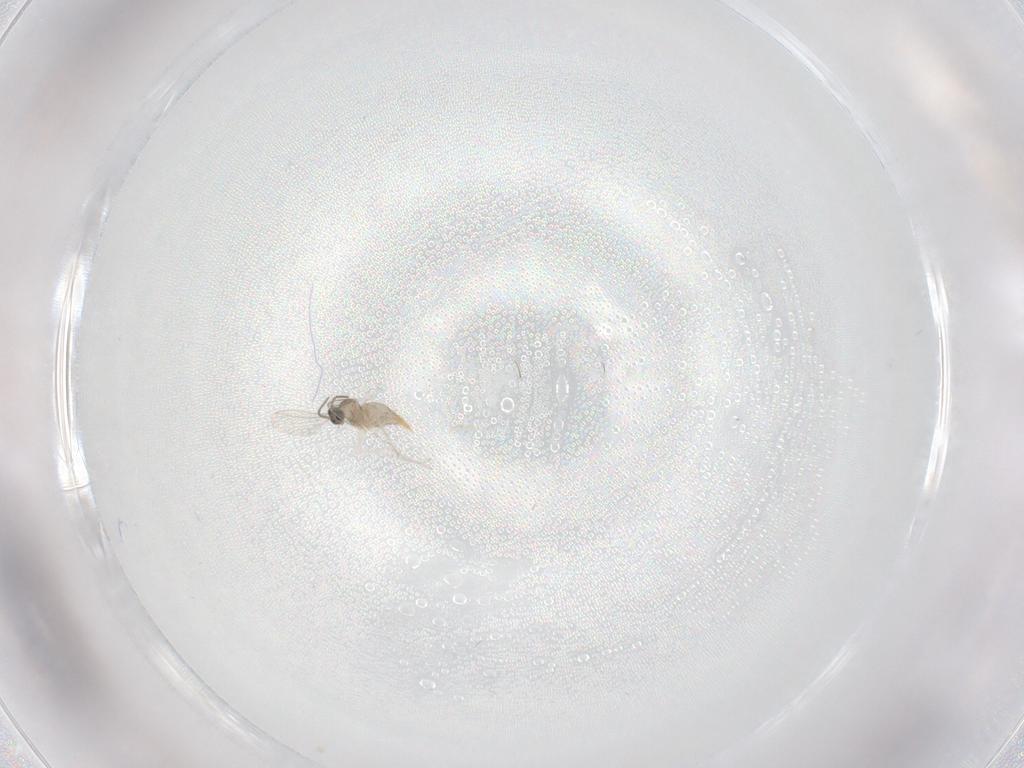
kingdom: Animalia
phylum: Arthropoda
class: Insecta
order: Diptera
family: Cecidomyiidae
